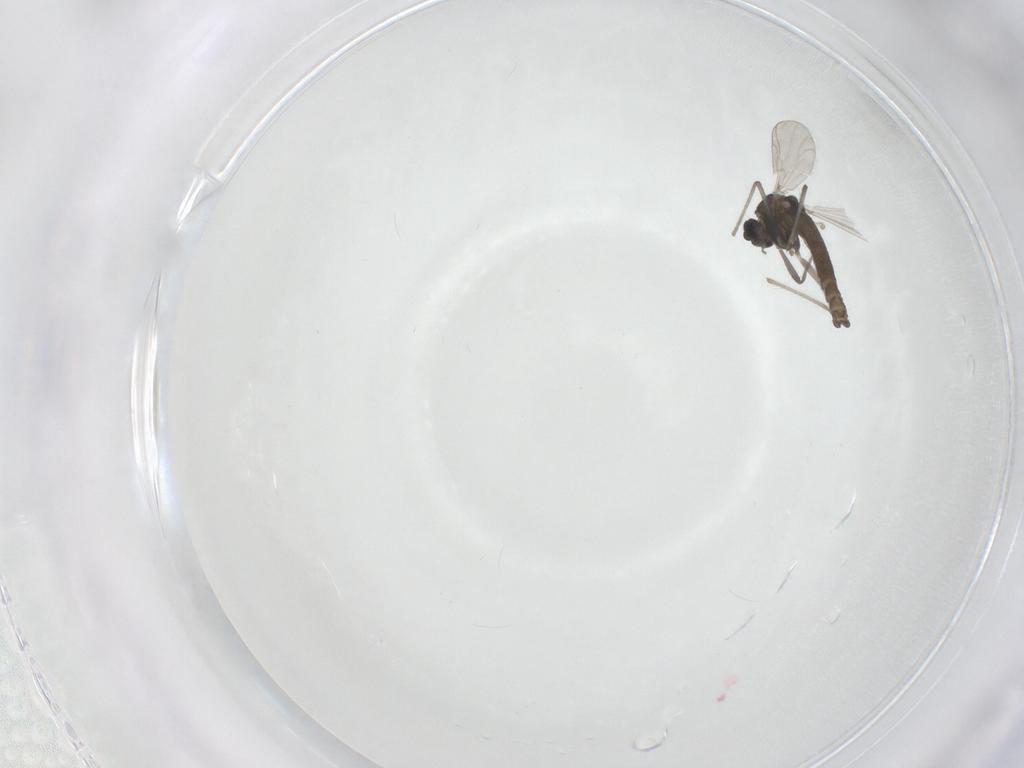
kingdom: Animalia
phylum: Arthropoda
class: Insecta
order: Diptera
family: Chironomidae
